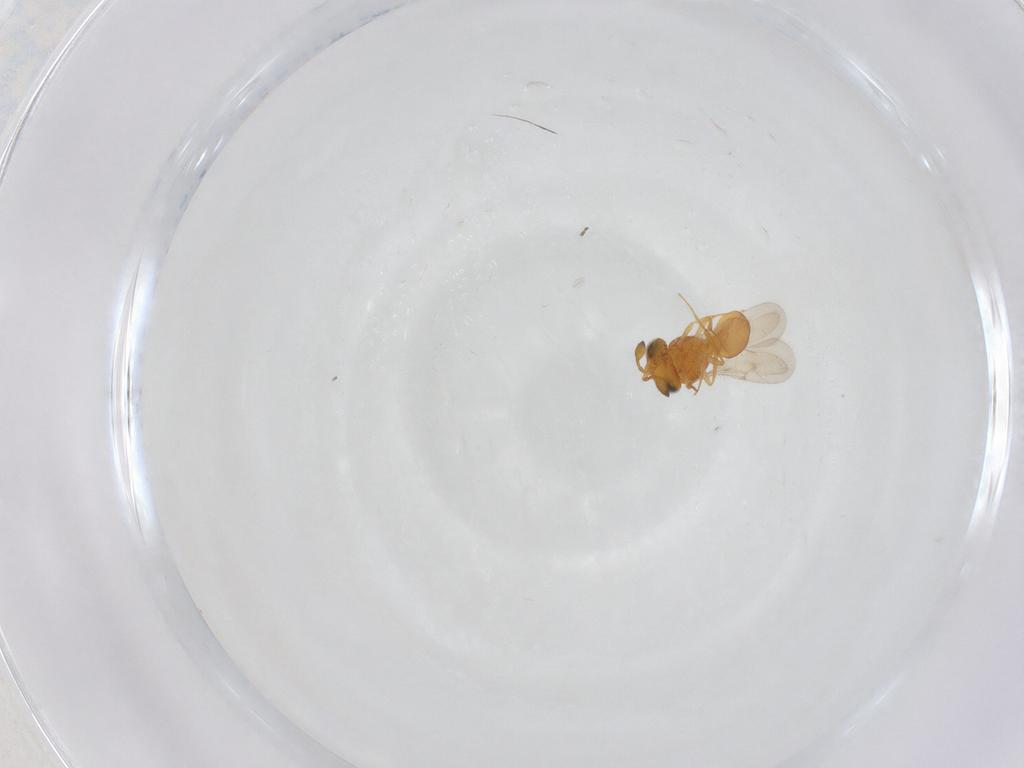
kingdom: Animalia
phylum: Arthropoda
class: Insecta
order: Hymenoptera
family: Scelionidae
